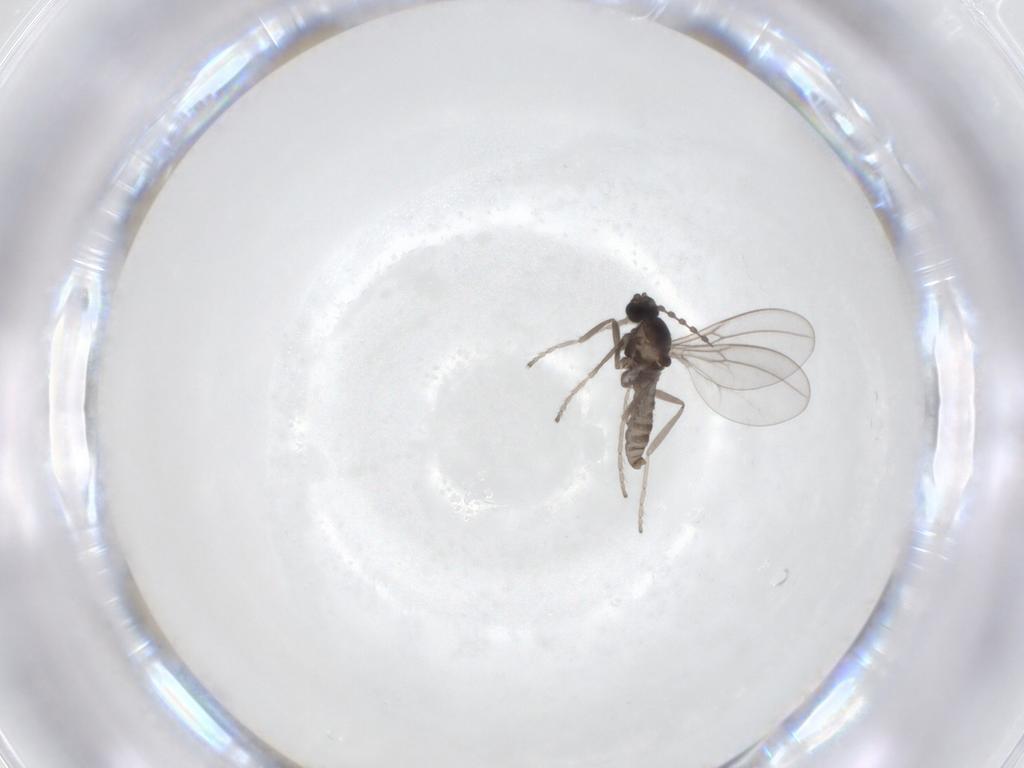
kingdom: Animalia
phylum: Arthropoda
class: Insecta
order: Diptera
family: Cecidomyiidae
